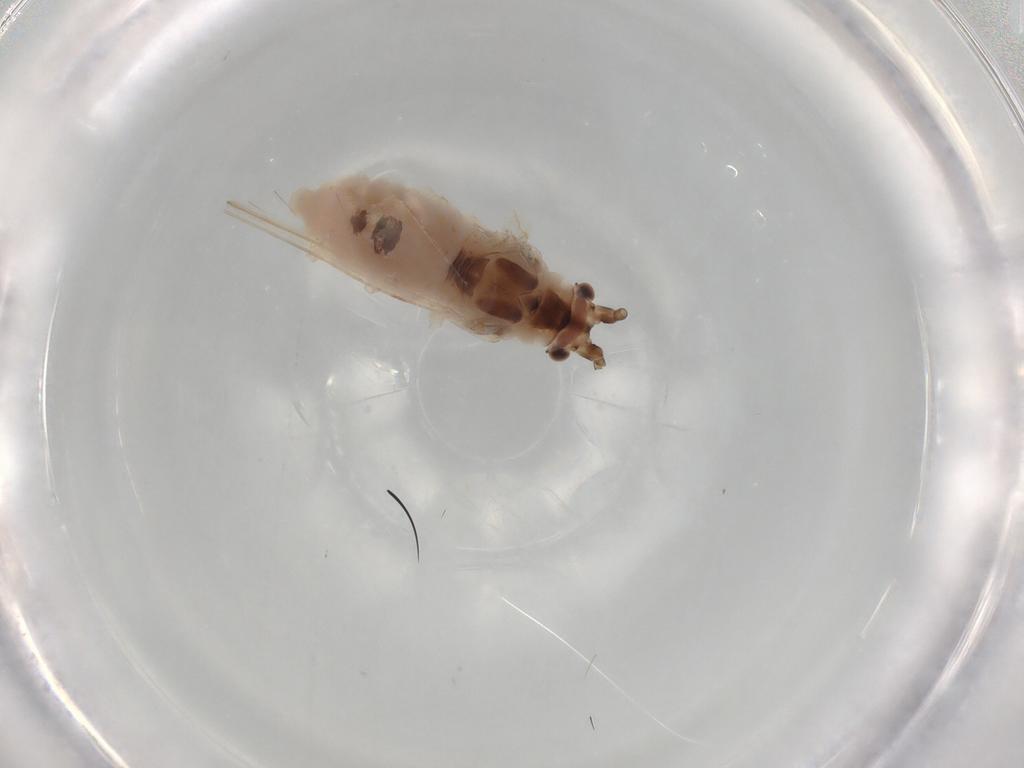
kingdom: Animalia
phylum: Arthropoda
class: Insecta
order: Hemiptera
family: Aphididae
